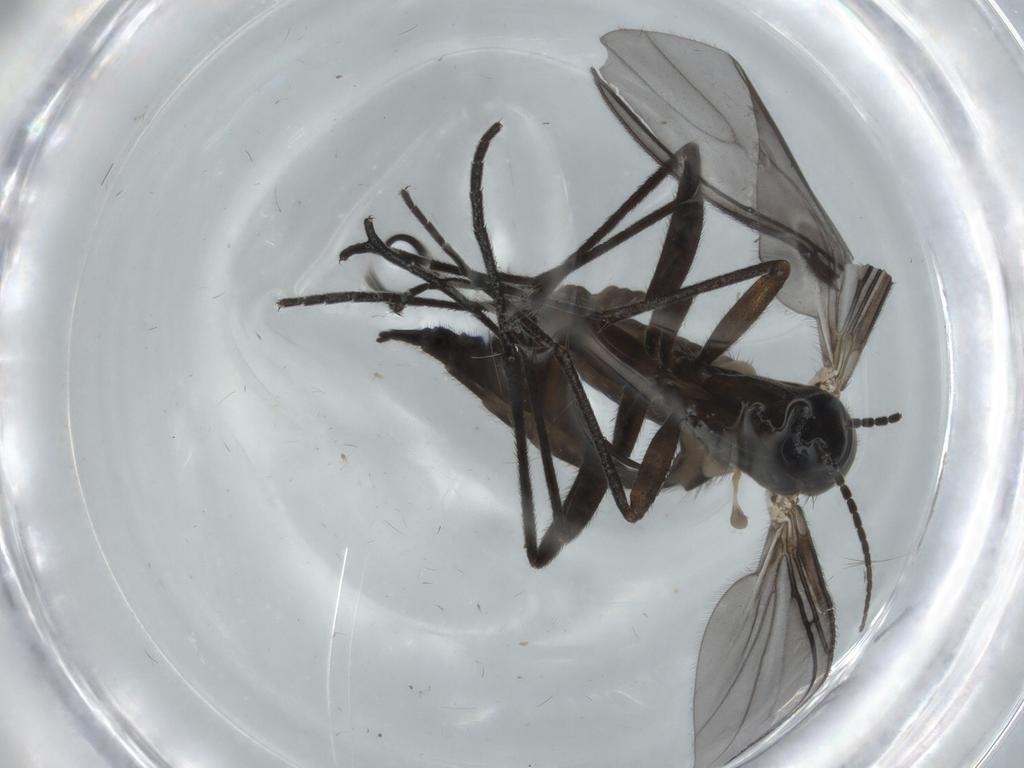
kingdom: Animalia
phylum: Arthropoda
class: Insecta
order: Diptera
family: Sciaridae
